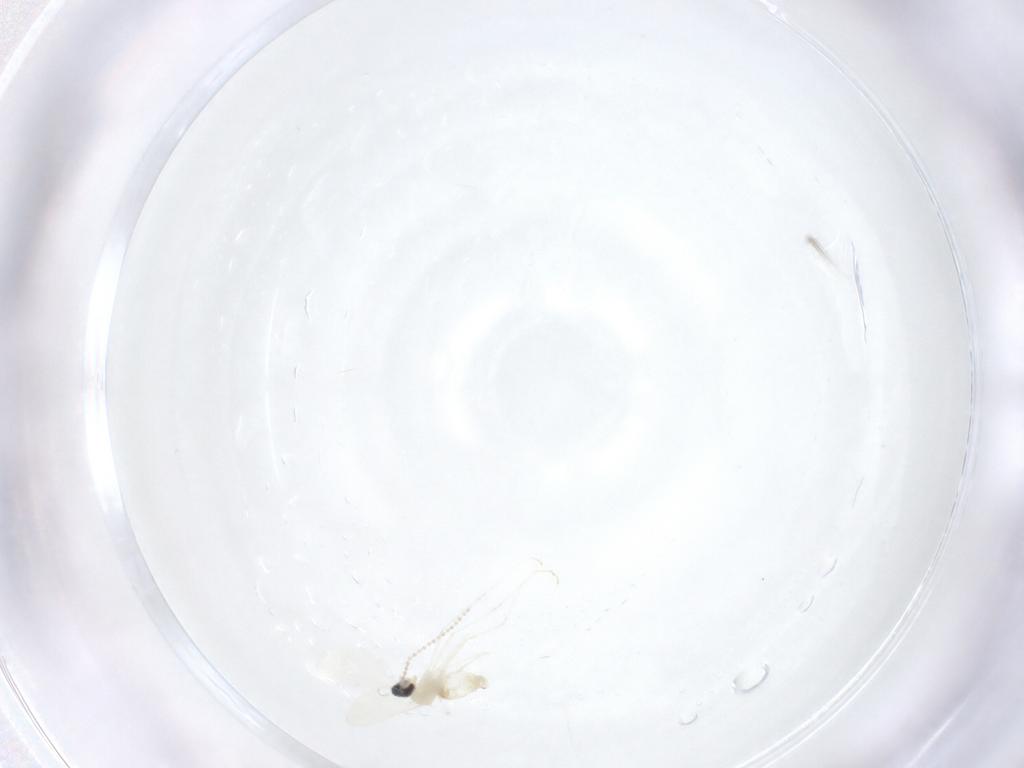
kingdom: Animalia
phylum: Arthropoda
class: Insecta
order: Diptera
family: Cecidomyiidae
